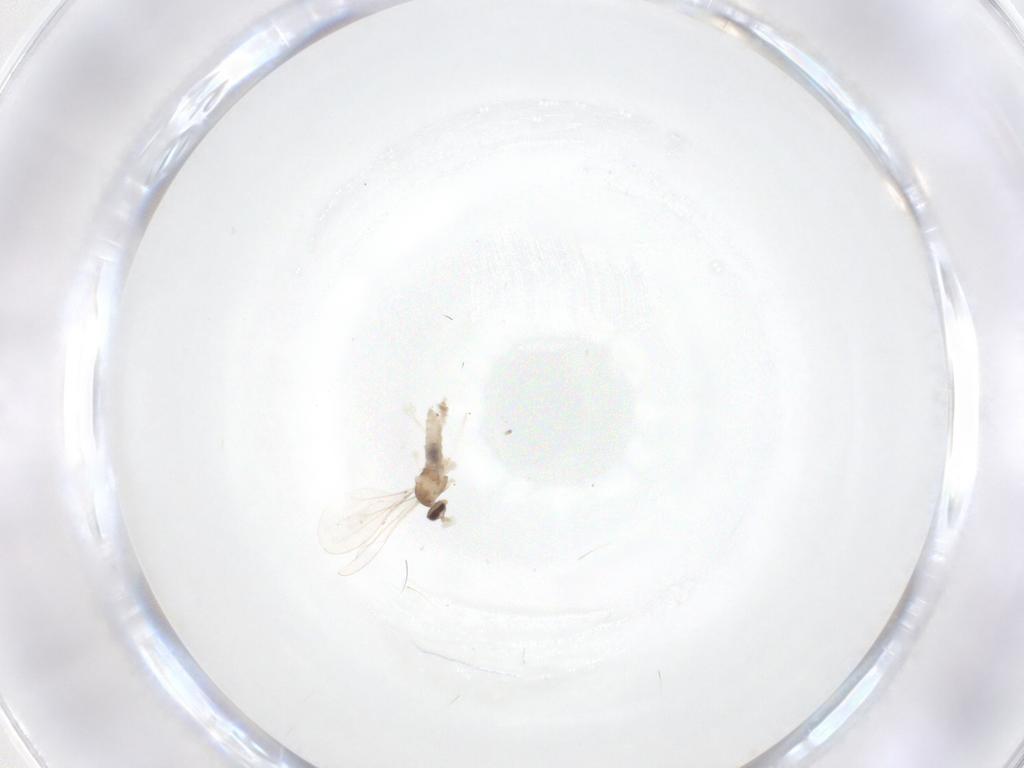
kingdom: Animalia
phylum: Arthropoda
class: Insecta
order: Diptera
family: Cecidomyiidae
